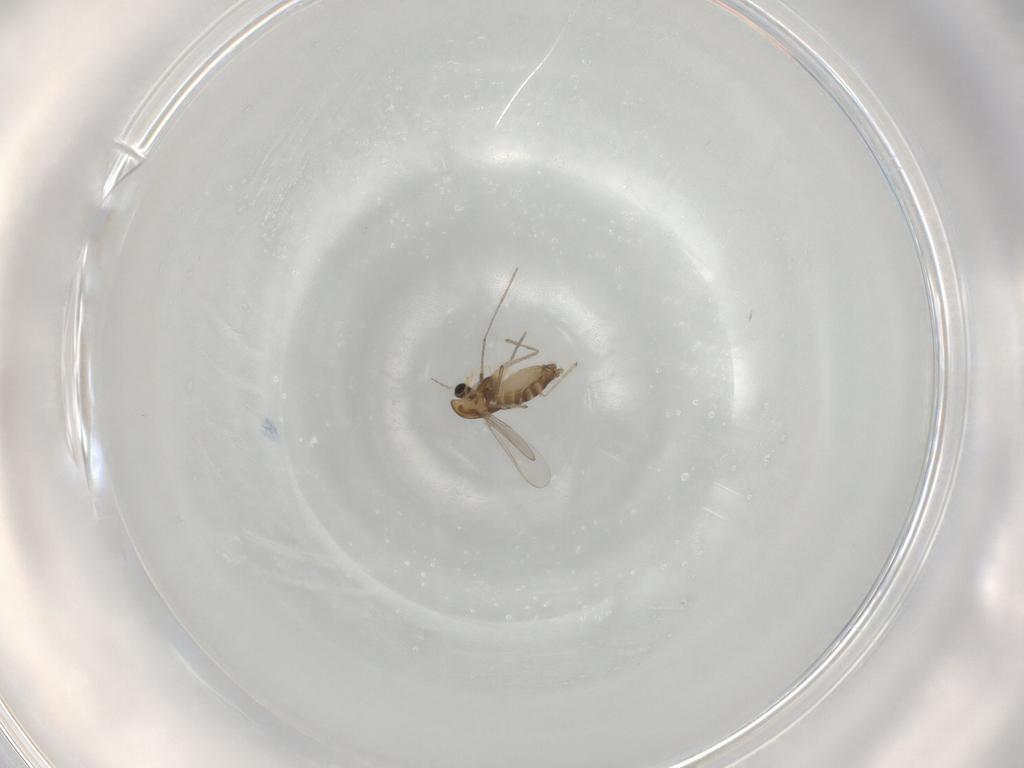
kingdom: Animalia
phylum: Arthropoda
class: Insecta
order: Diptera
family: Chironomidae
